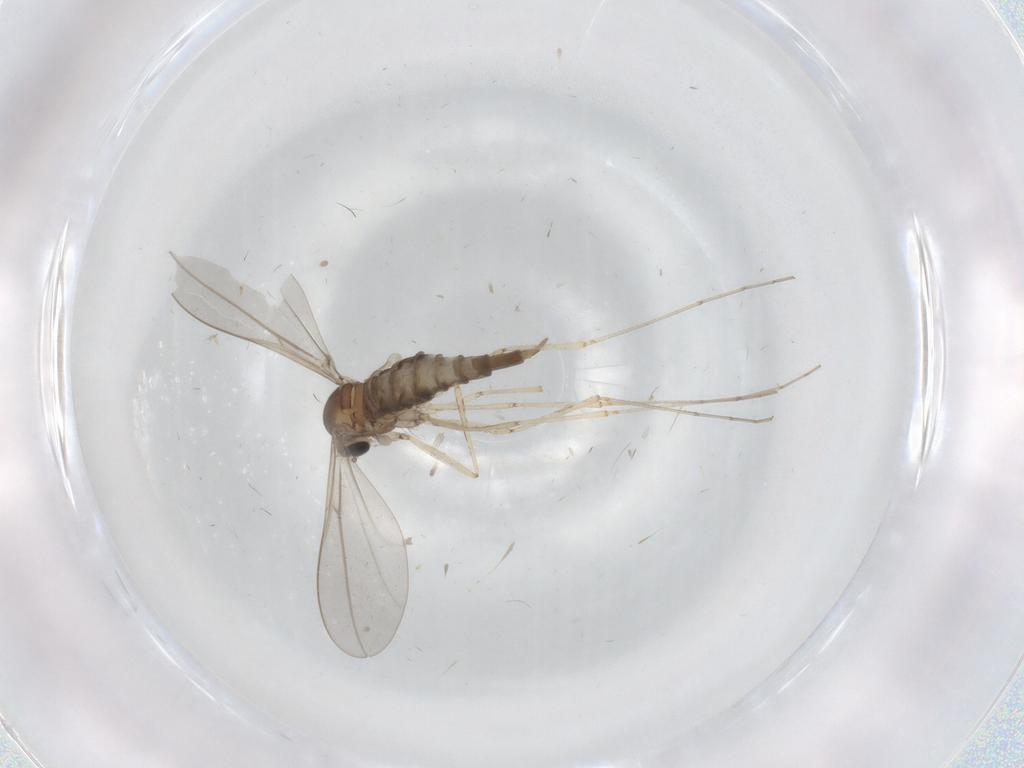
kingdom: Animalia
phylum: Arthropoda
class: Insecta
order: Diptera
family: Cecidomyiidae
